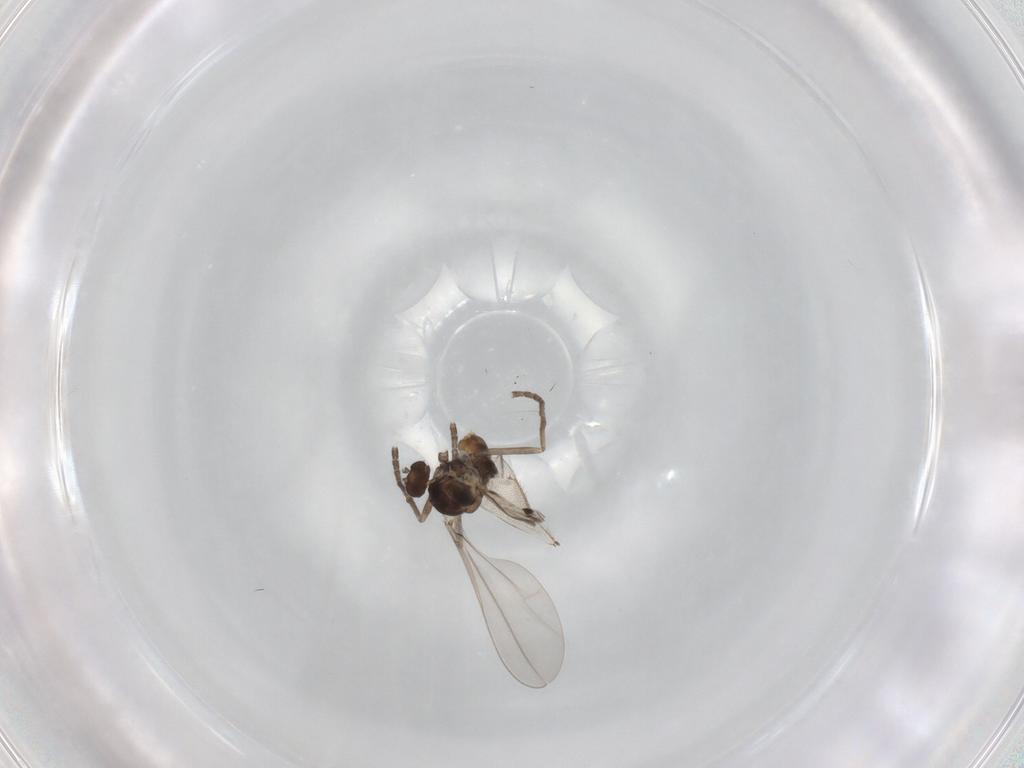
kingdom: Animalia
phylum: Arthropoda
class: Insecta
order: Diptera
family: Cecidomyiidae
